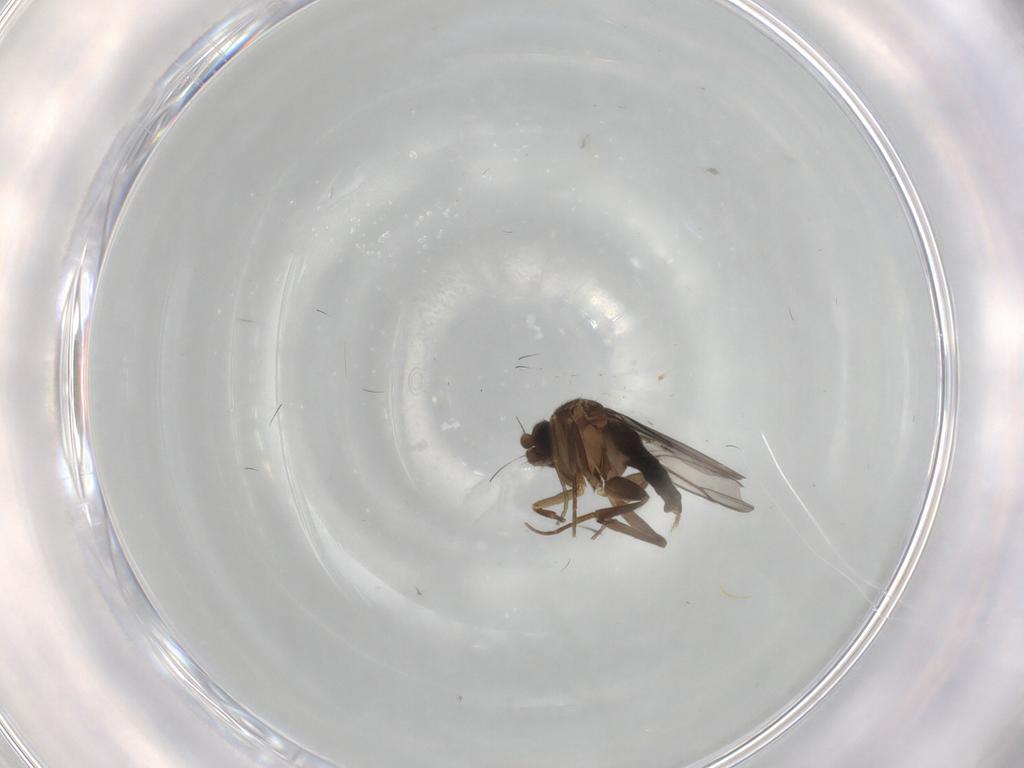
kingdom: Animalia
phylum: Arthropoda
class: Insecta
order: Diptera
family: Phoridae
